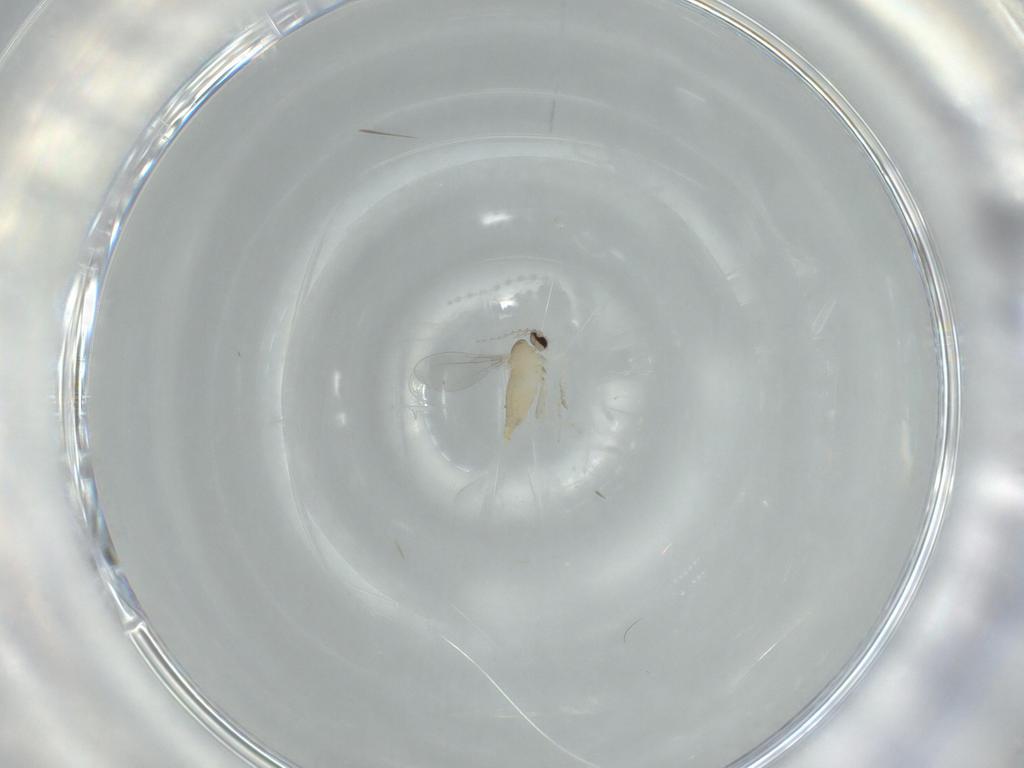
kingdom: Animalia
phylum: Arthropoda
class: Insecta
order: Diptera
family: Cecidomyiidae
